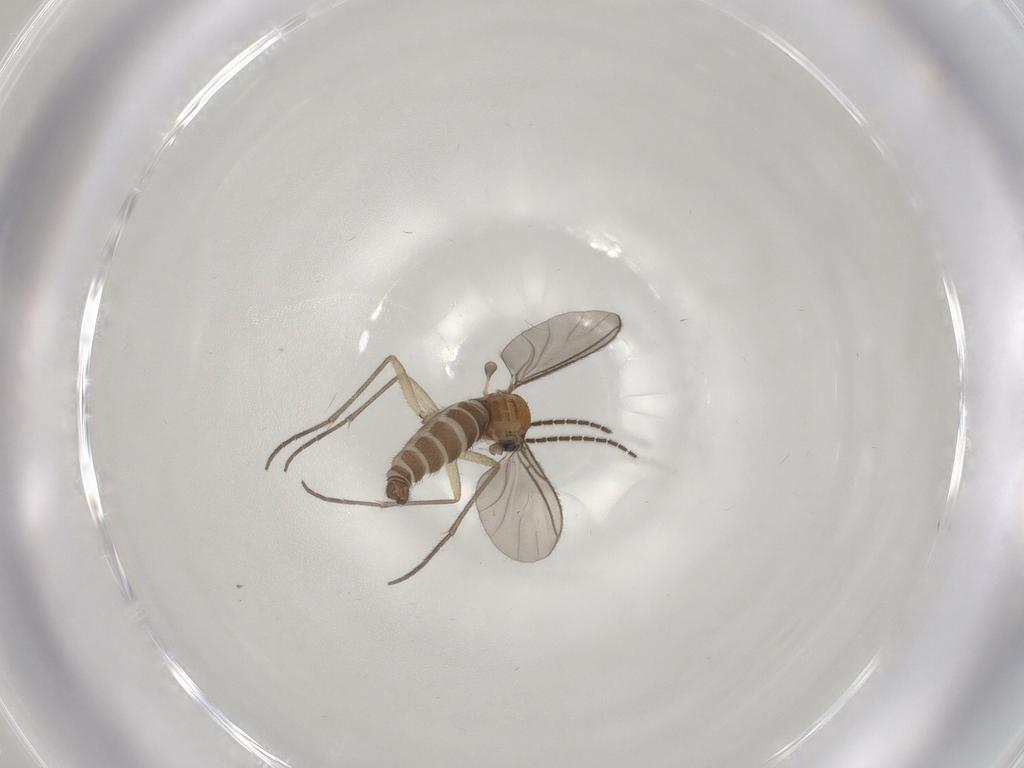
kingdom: Animalia
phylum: Arthropoda
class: Insecta
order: Diptera
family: Sciaridae
